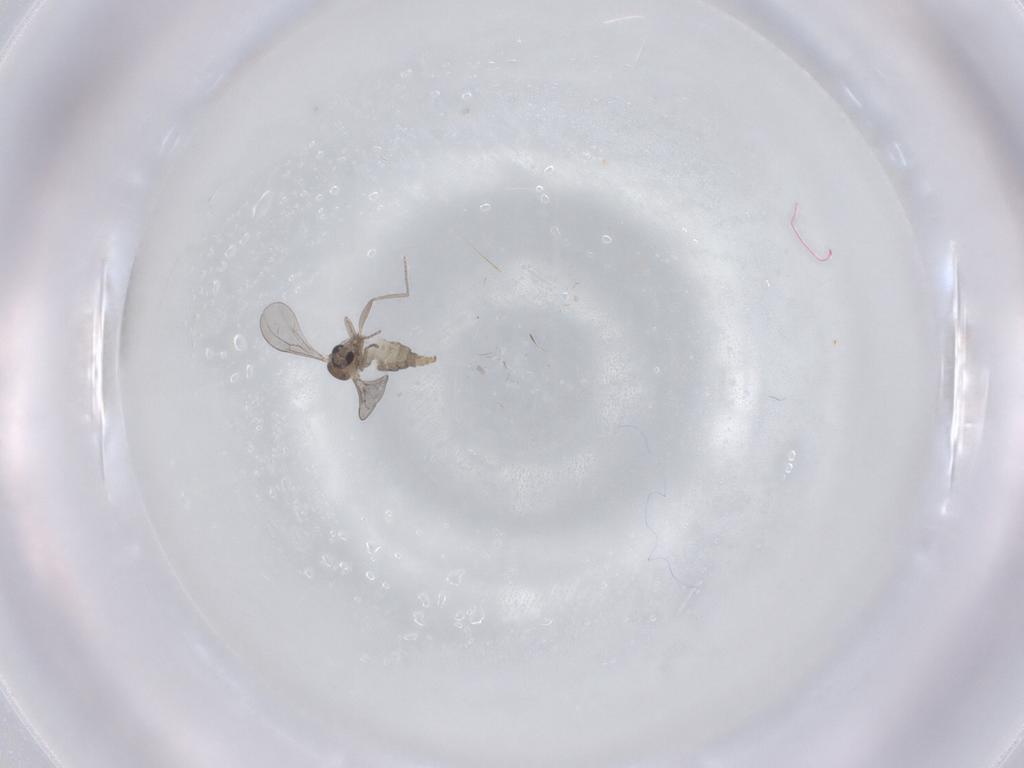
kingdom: Animalia
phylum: Arthropoda
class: Insecta
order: Diptera
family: Cecidomyiidae
